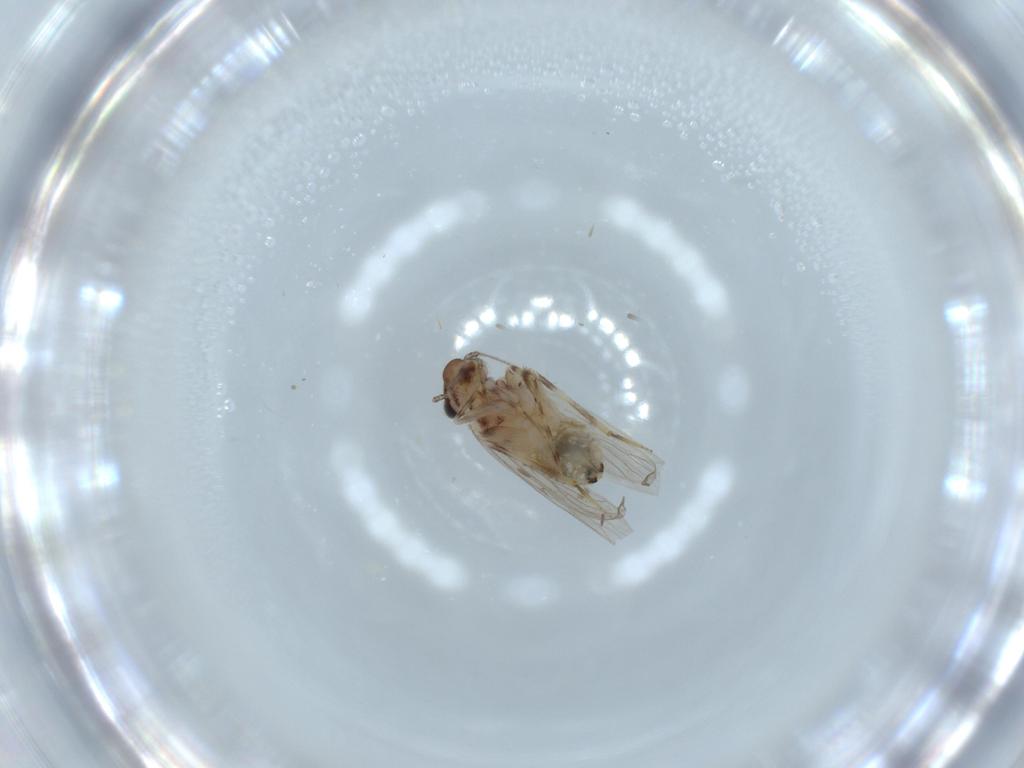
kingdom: Animalia
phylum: Arthropoda
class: Insecta
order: Psocodea
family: Lepidopsocidae
